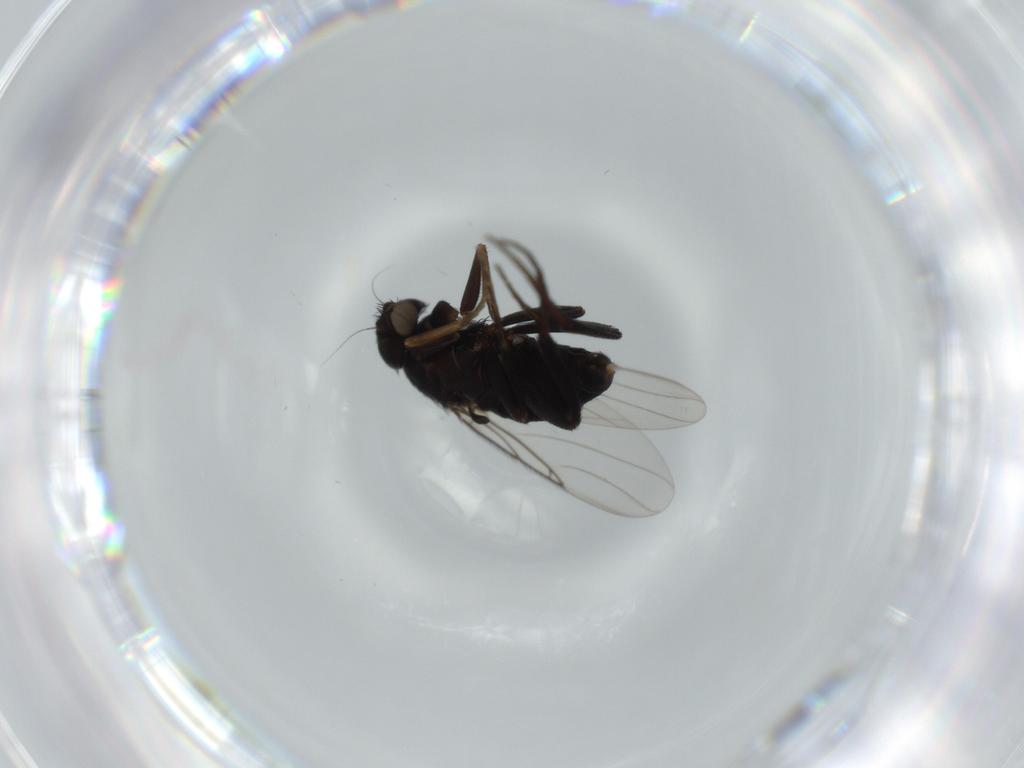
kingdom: Animalia
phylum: Arthropoda
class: Insecta
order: Diptera
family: Phoridae
